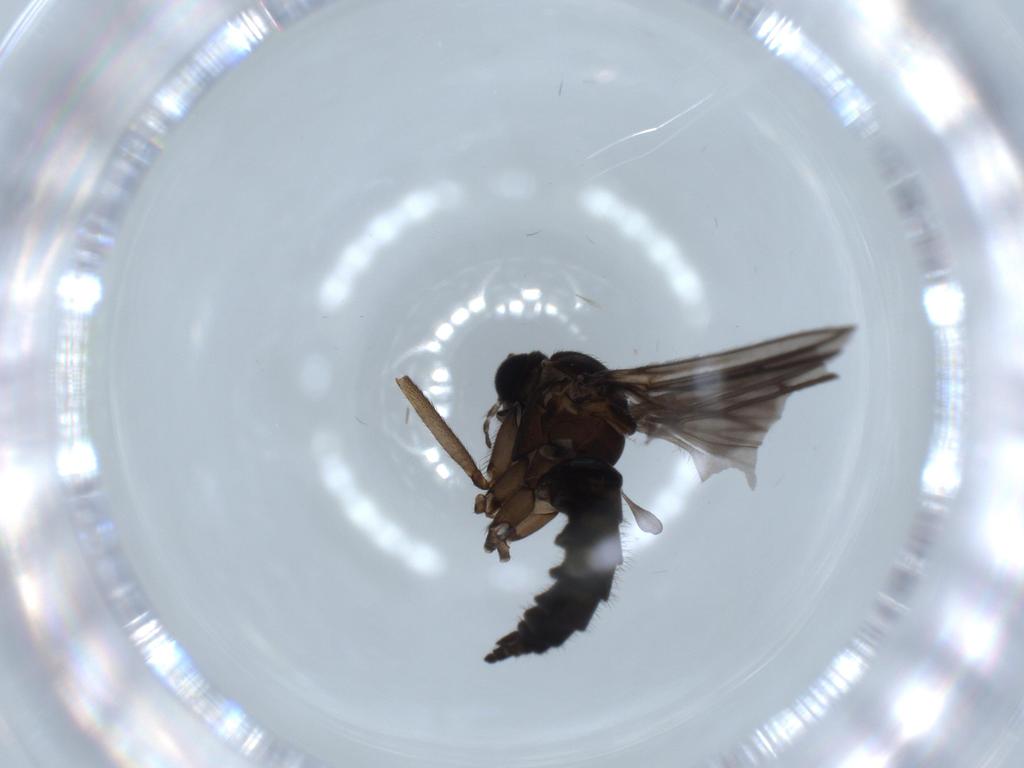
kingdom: Animalia
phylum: Arthropoda
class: Insecta
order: Diptera
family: Sciaridae
